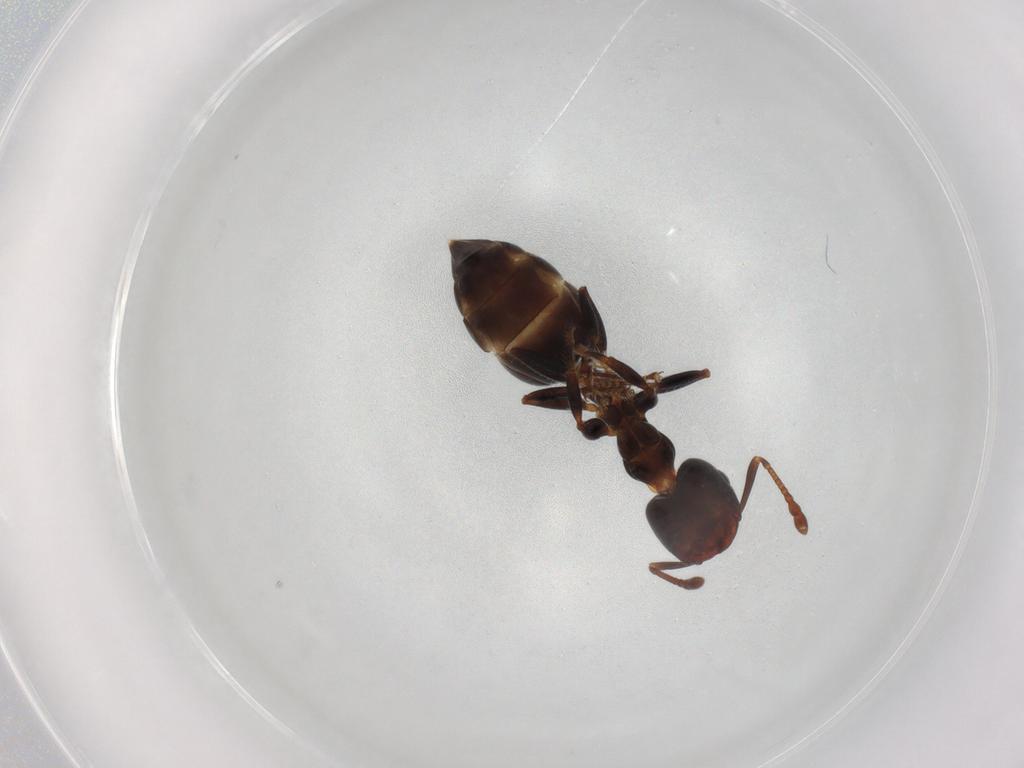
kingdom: Animalia
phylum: Arthropoda
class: Insecta
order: Hymenoptera
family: Formicidae
